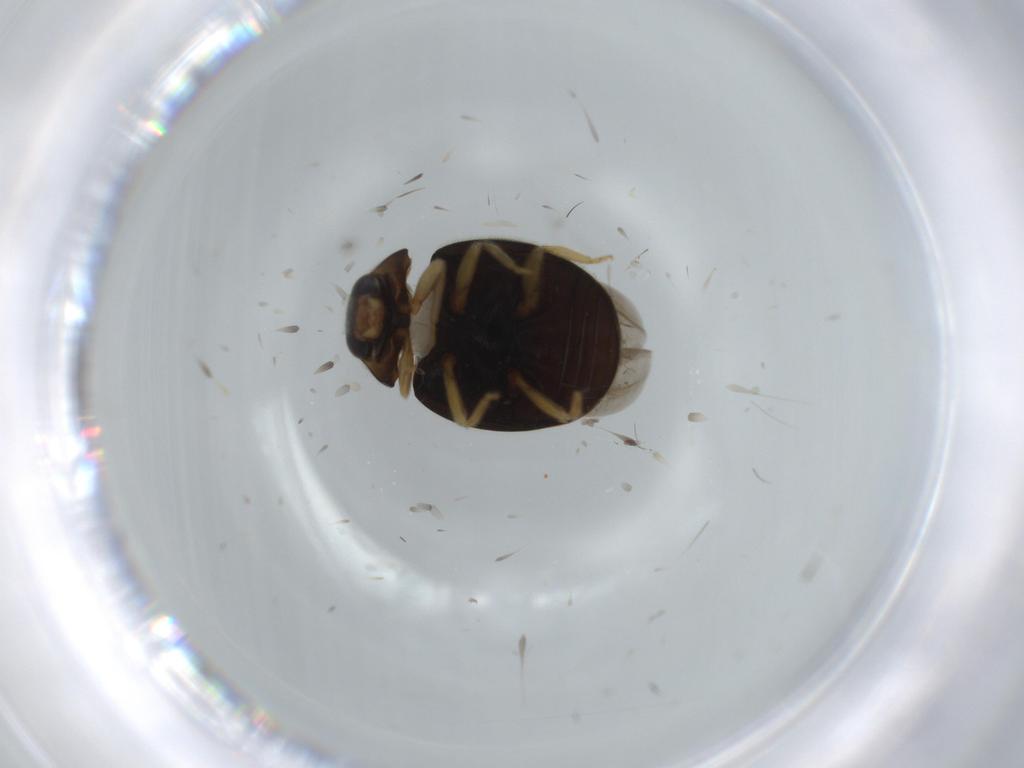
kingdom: Animalia
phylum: Arthropoda
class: Insecta
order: Coleoptera
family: Coccinellidae
